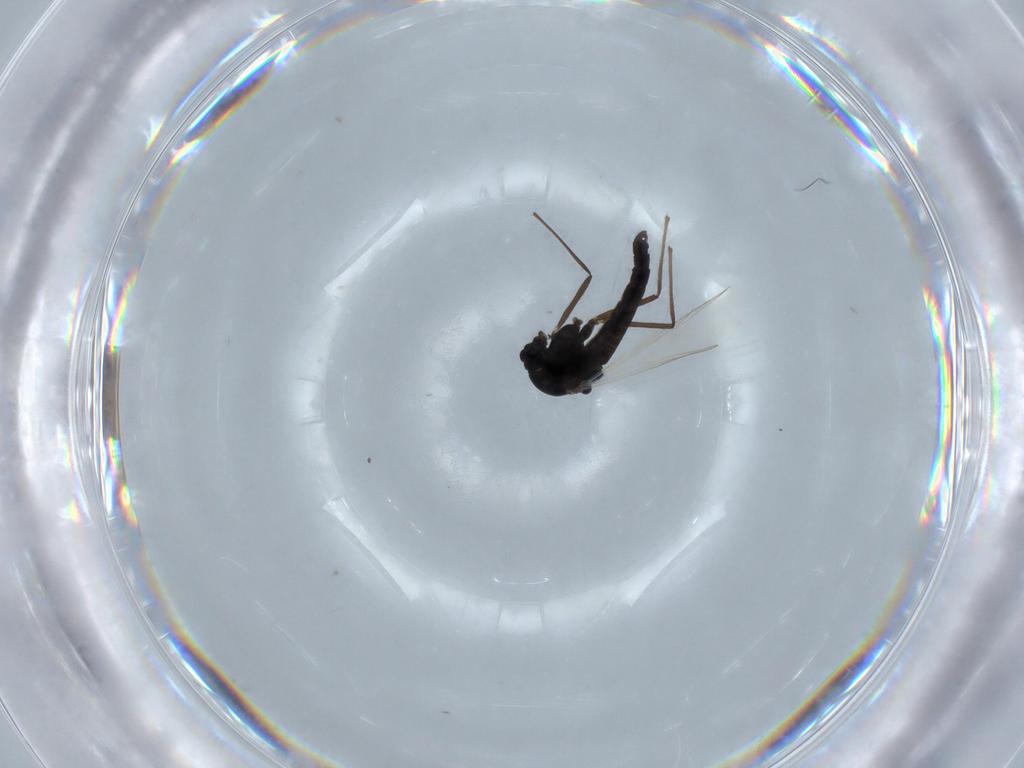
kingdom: Animalia
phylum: Arthropoda
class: Insecta
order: Diptera
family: Chironomidae
